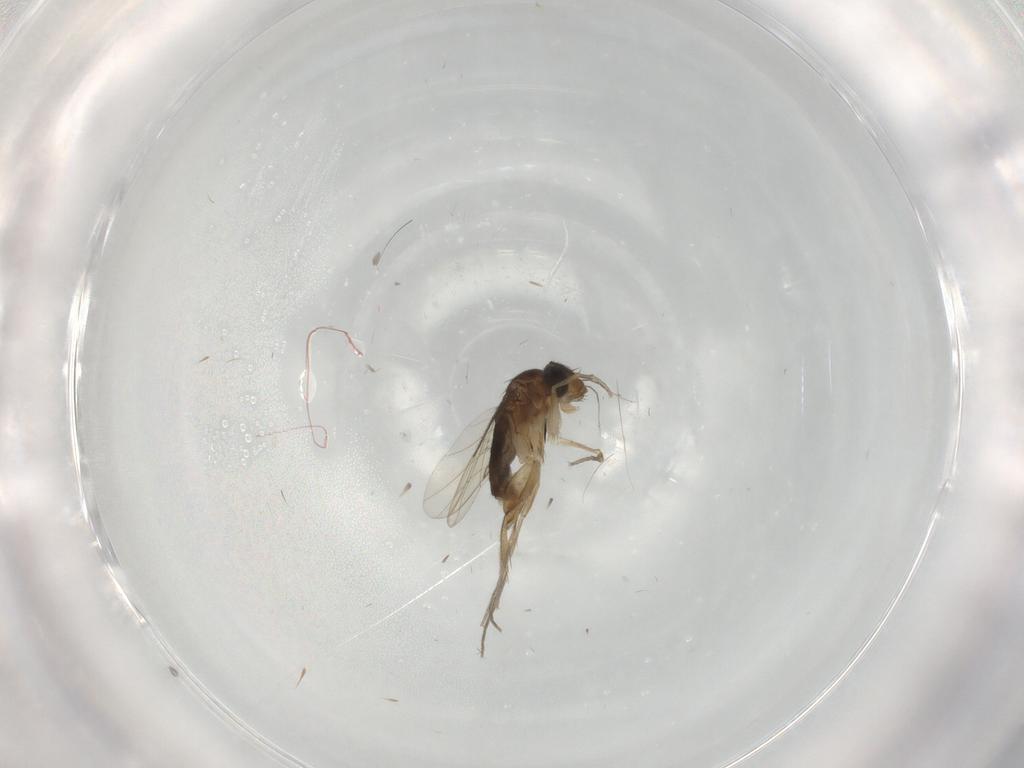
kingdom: Animalia
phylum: Arthropoda
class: Insecta
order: Diptera
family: Phoridae
